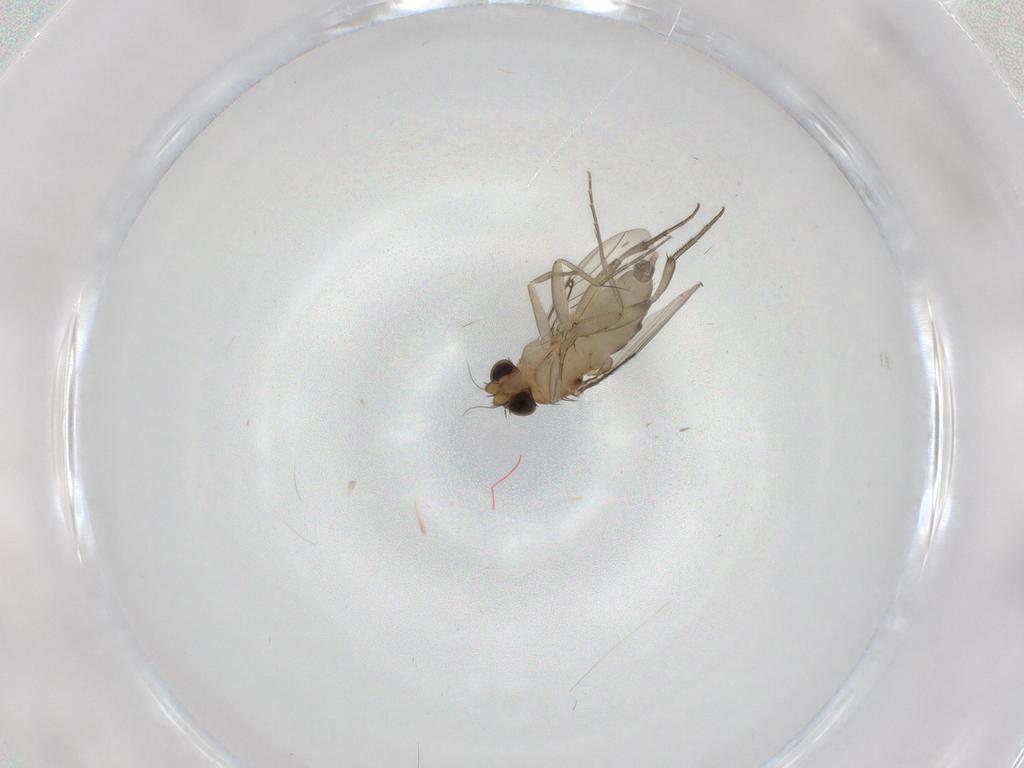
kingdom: Animalia
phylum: Arthropoda
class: Insecta
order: Diptera
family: Phoridae
